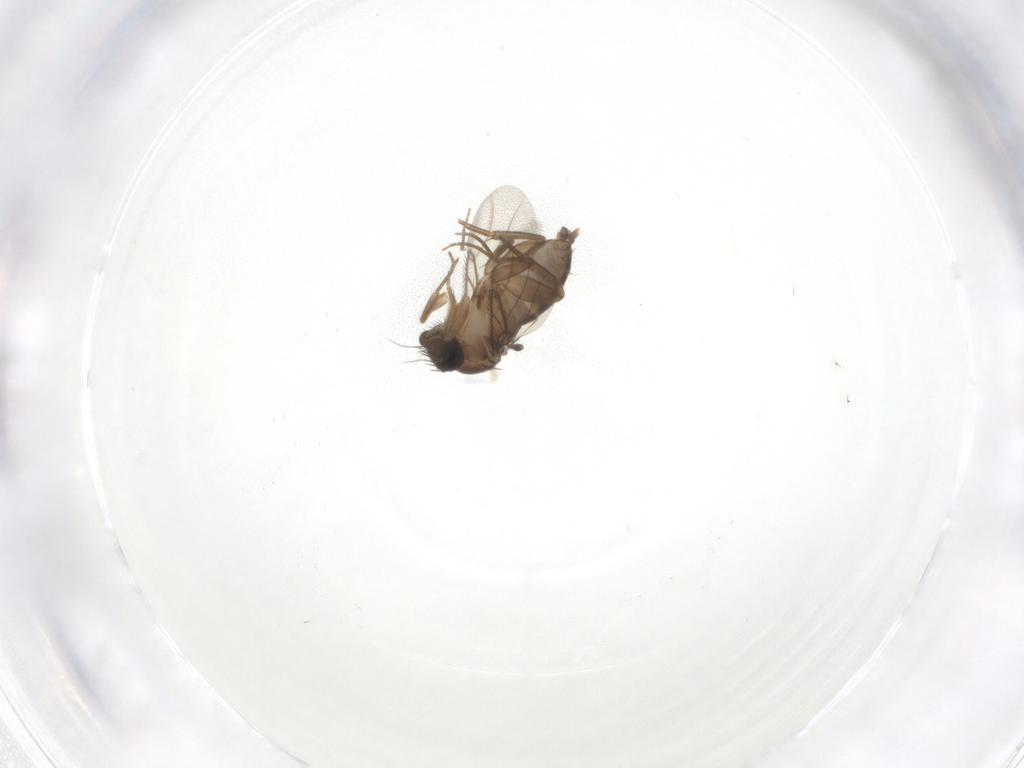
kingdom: Animalia
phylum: Arthropoda
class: Insecta
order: Diptera
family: Phoridae
